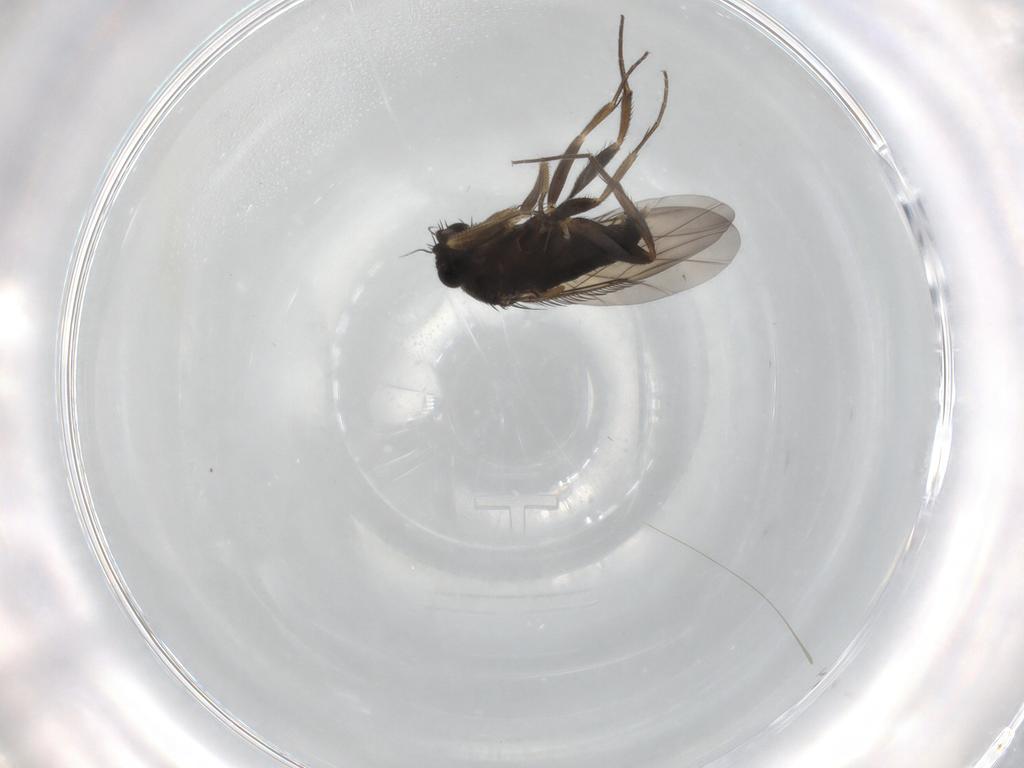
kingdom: Animalia
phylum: Arthropoda
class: Insecta
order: Diptera
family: Phoridae
